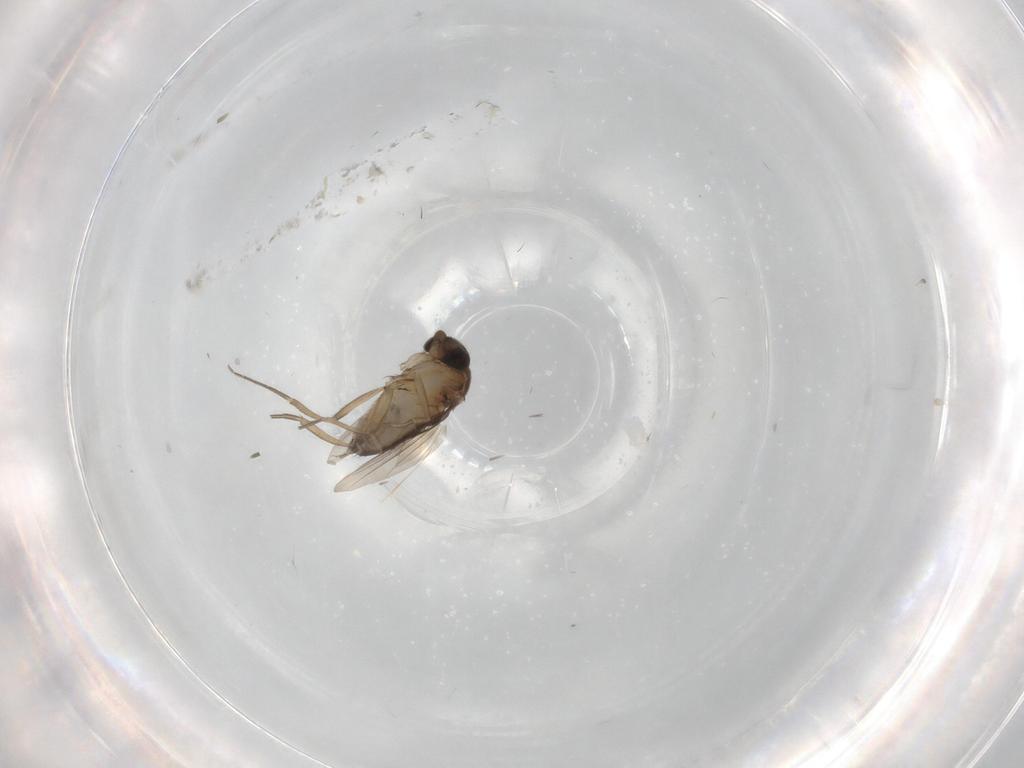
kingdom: Animalia
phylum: Arthropoda
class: Insecta
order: Diptera
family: Phoridae
